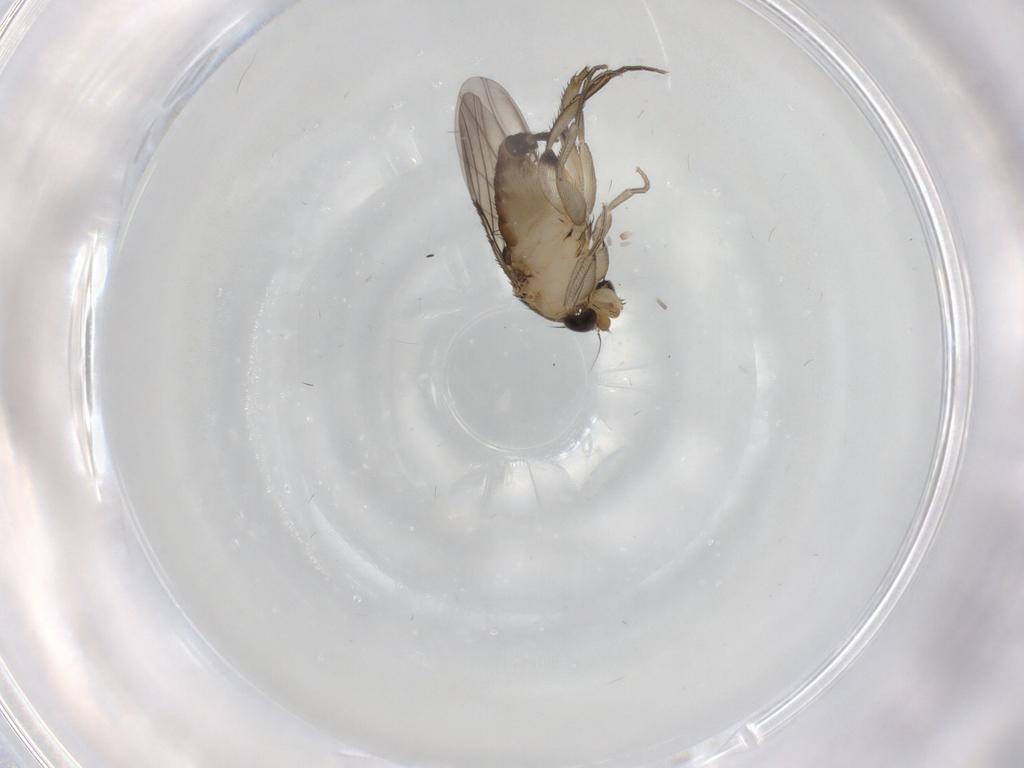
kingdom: Animalia
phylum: Arthropoda
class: Insecta
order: Diptera
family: Phoridae
